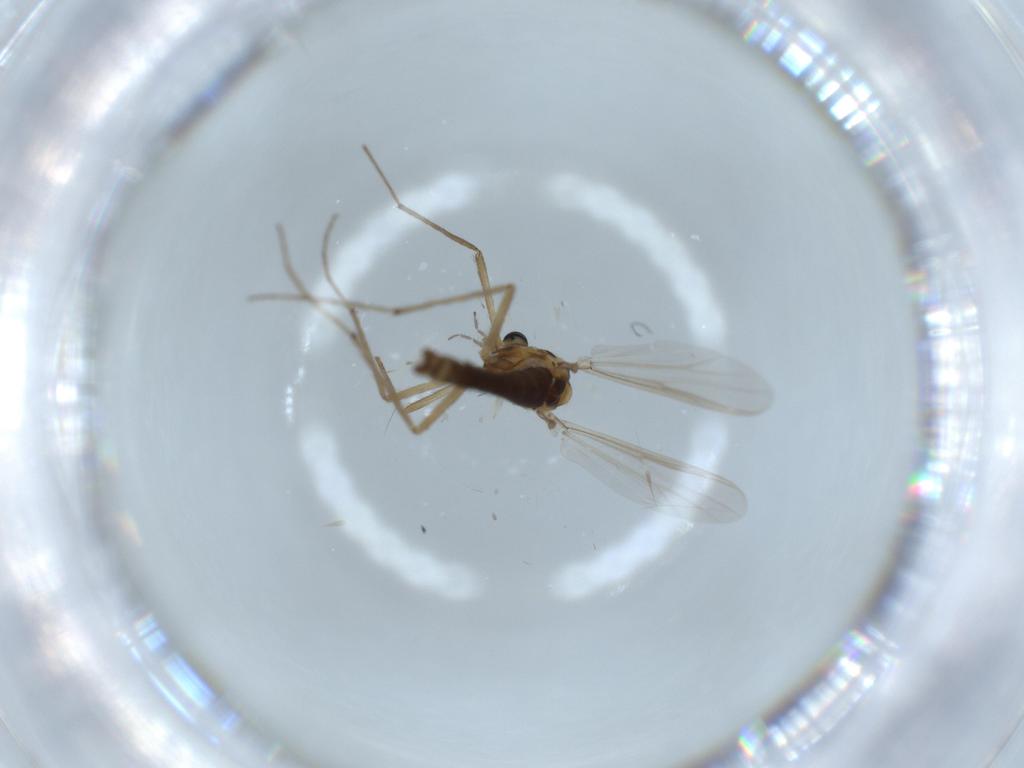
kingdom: Animalia
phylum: Arthropoda
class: Insecta
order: Diptera
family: Chironomidae
